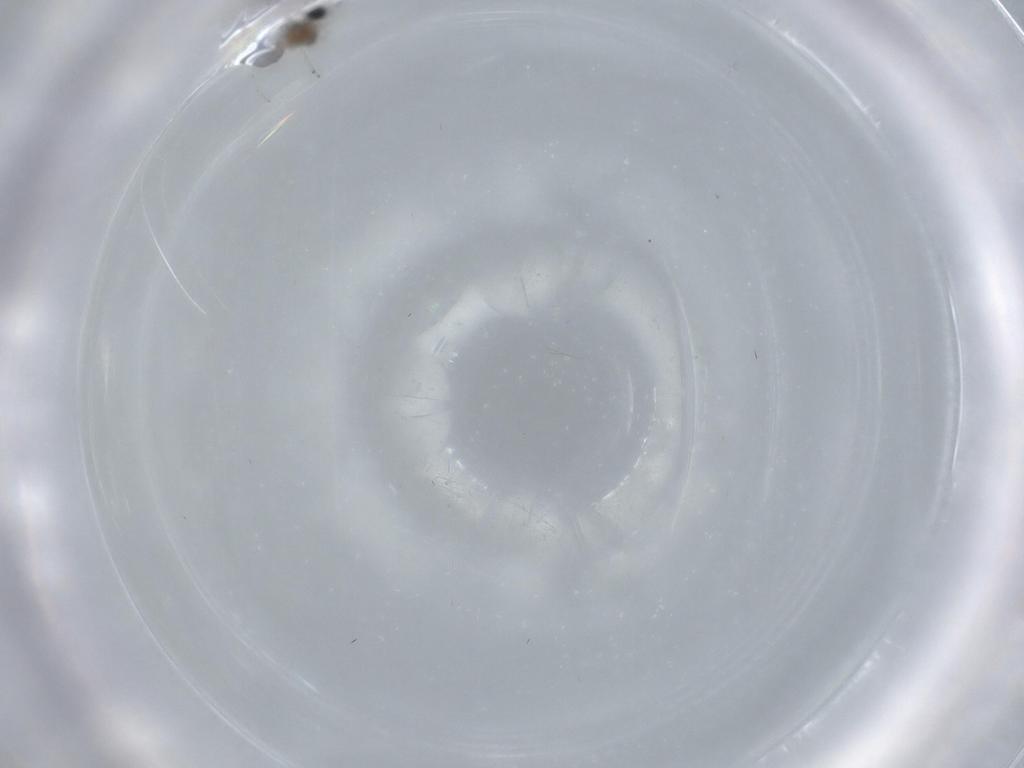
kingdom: Animalia
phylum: Arthropoda
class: Insecta
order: Diptera
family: Cecidomyiidae
